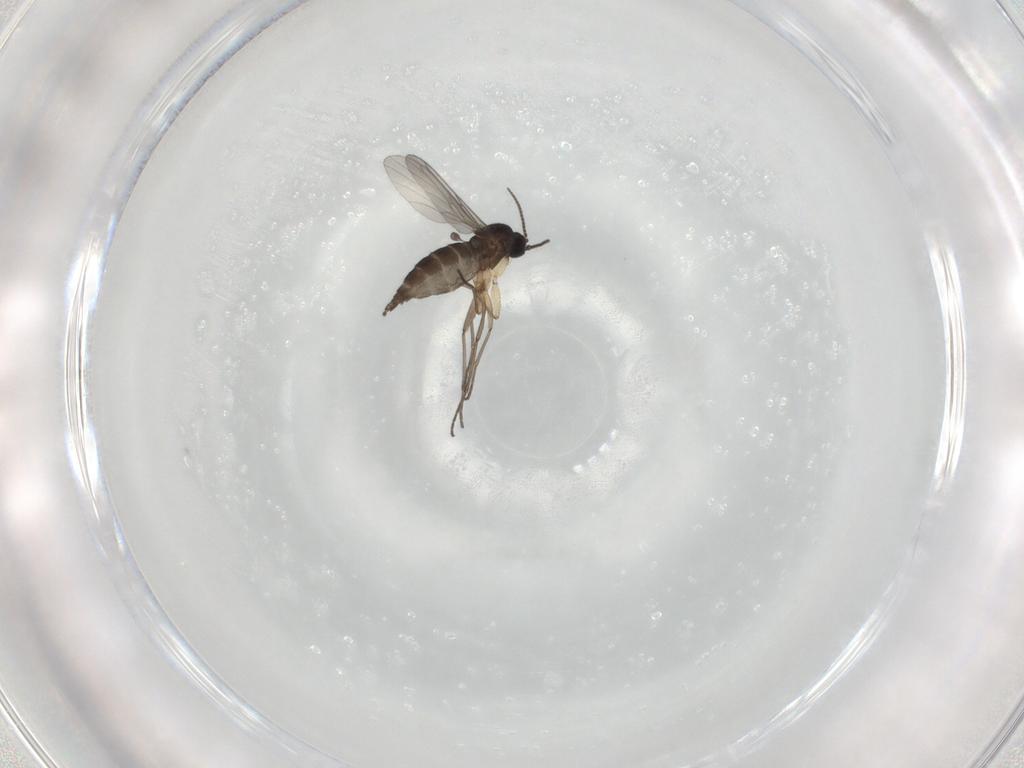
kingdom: Animalia
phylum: Arthropoda
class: Insecta
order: Diptera
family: Sciaridae
